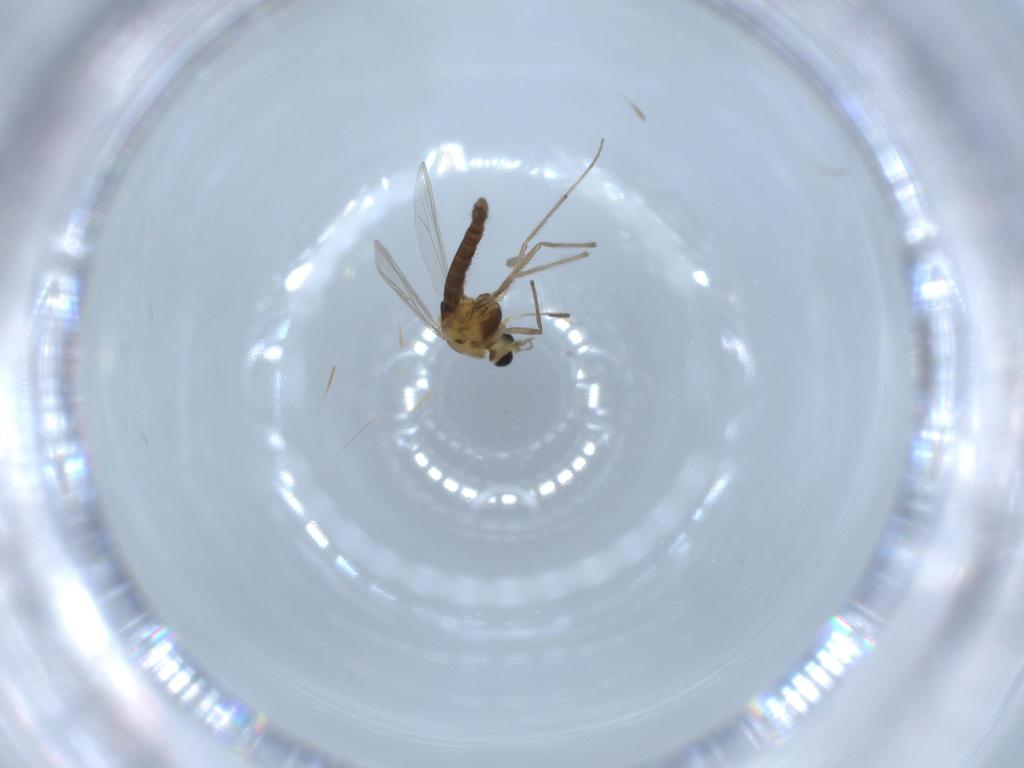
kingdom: Animalia
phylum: Arthropoda
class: Insecta
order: Diptera
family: Chironomidae
